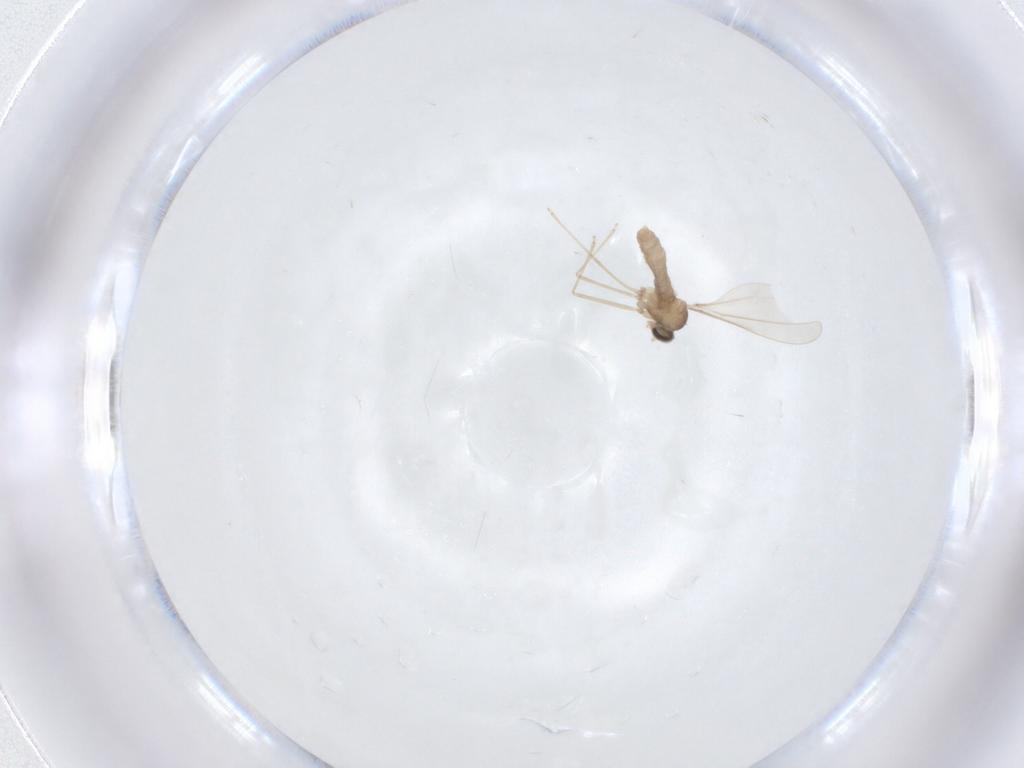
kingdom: Animalia
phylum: Arthropoda
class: Insecta
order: Diptera
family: Cecidomyiidae
